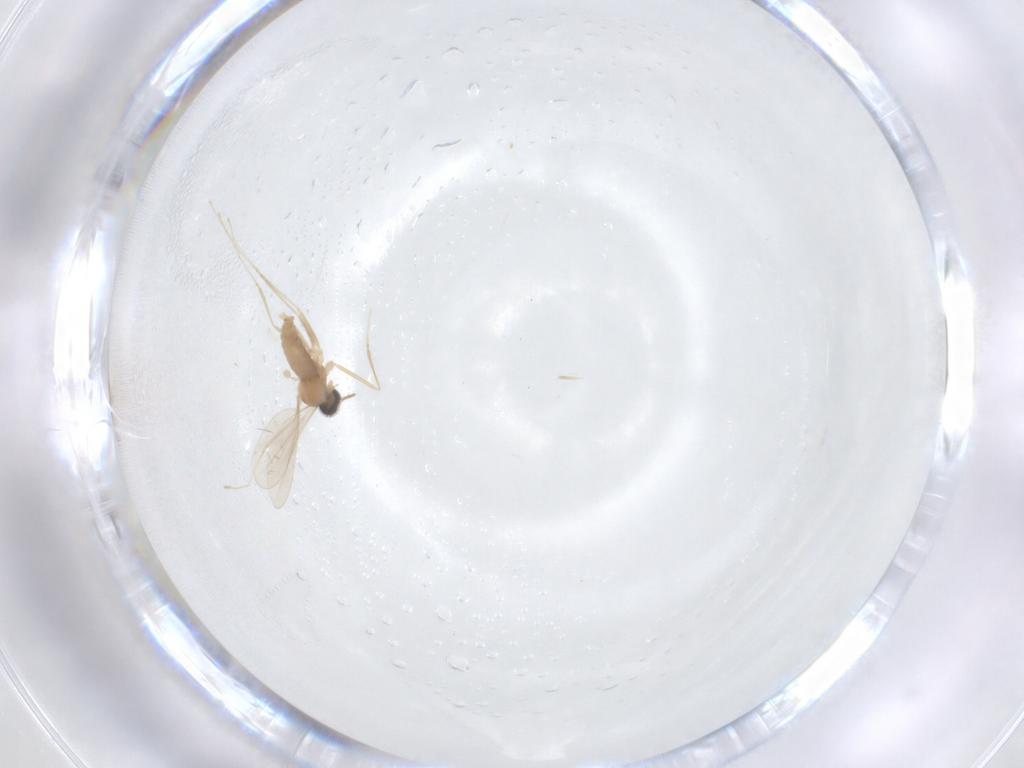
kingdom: Animalia
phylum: Arthropoda
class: Insecta
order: Diptera
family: Cecidomyiidae
